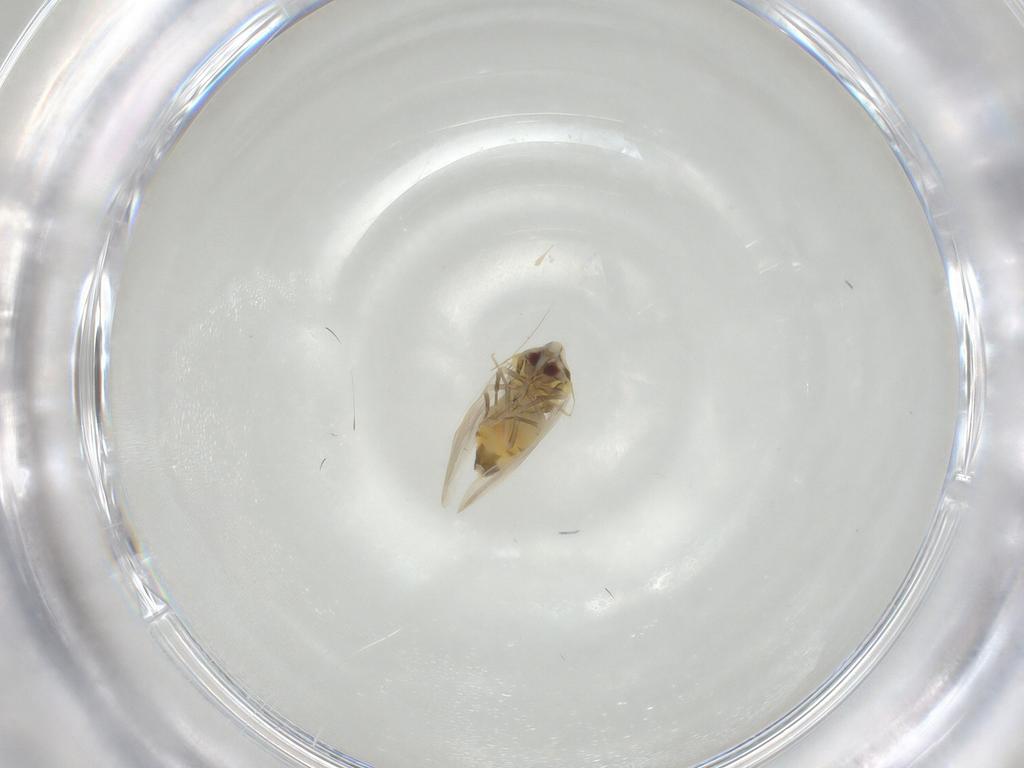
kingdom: Animalia
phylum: Arthropoda
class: Insecta
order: Hemiptera
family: Aleyrodidae
